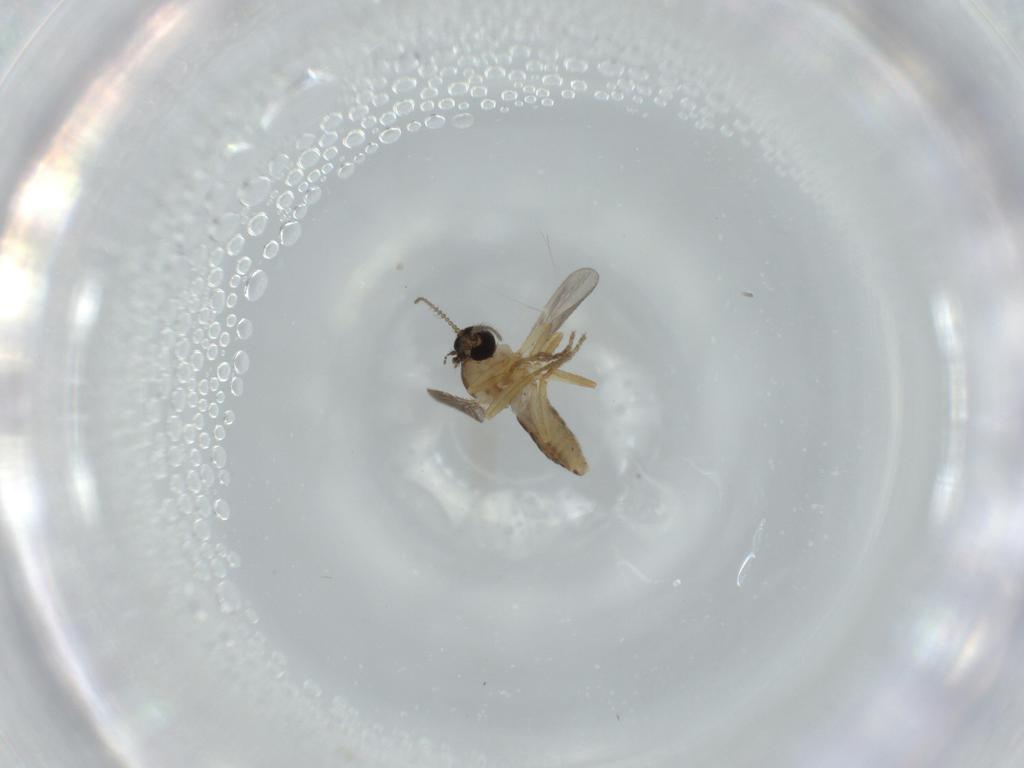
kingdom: Animalia
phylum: Arthropoda
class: Insecta
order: Diptera
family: Ceratopogonidae
